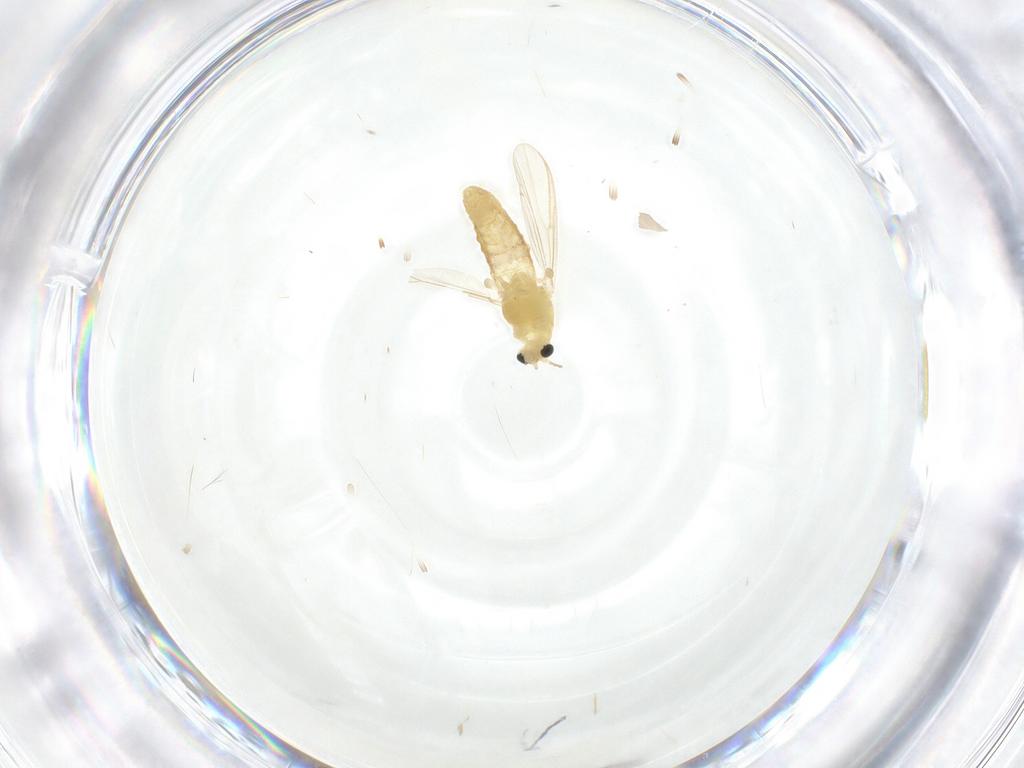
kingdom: Animalia
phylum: Arthropoda
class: Insecta
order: Diptera
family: Chironomidae
